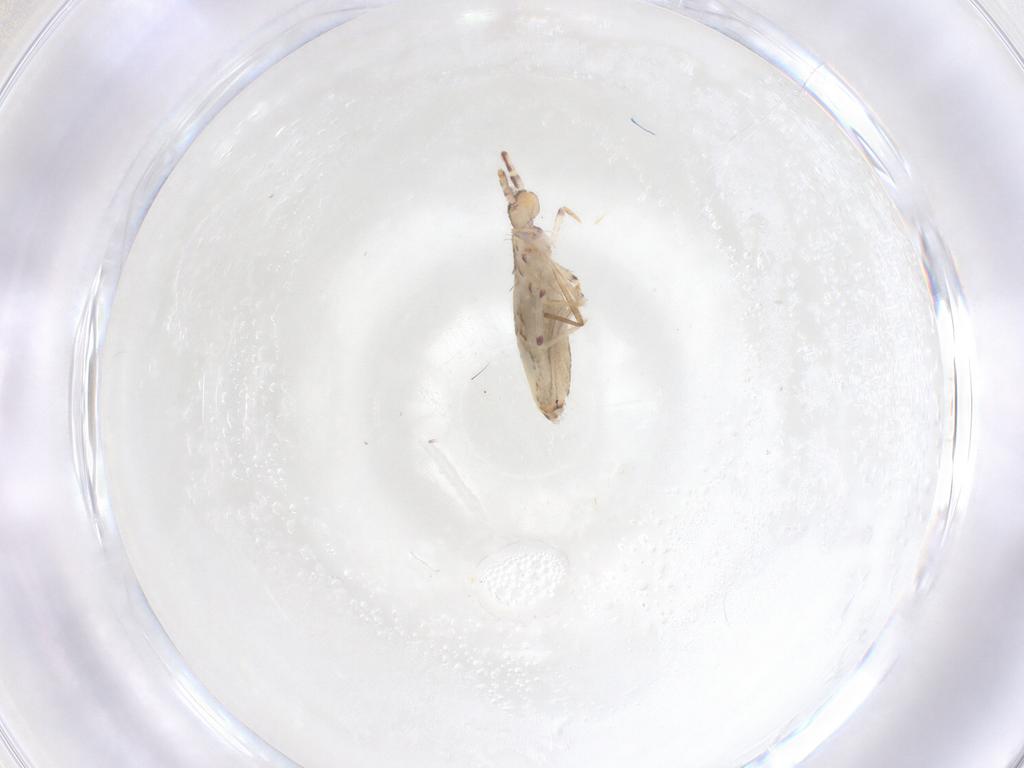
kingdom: Animalia
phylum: Arthropoda
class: Collembola
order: Entomobryomorpha
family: Entomobryidae
